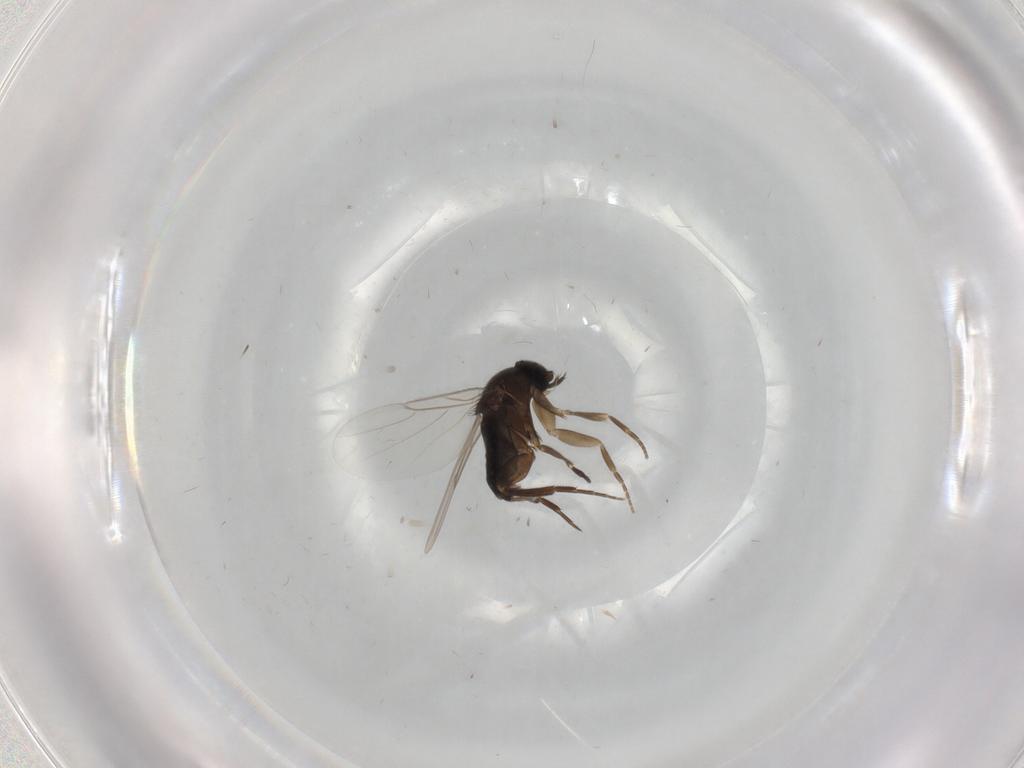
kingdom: Animalia
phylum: Arthropoda
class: Insecta
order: Diptera
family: Phoridae
